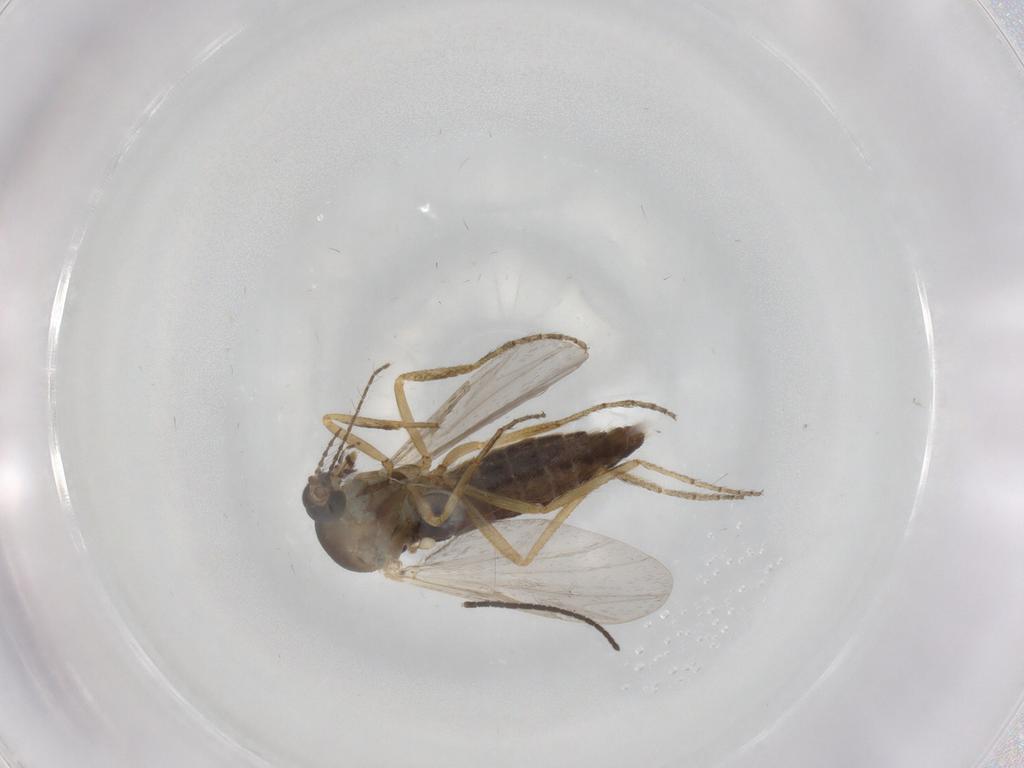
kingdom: Animalia
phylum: Arthropoda
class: Insecta
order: Diptera
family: Ceratopogonidae
